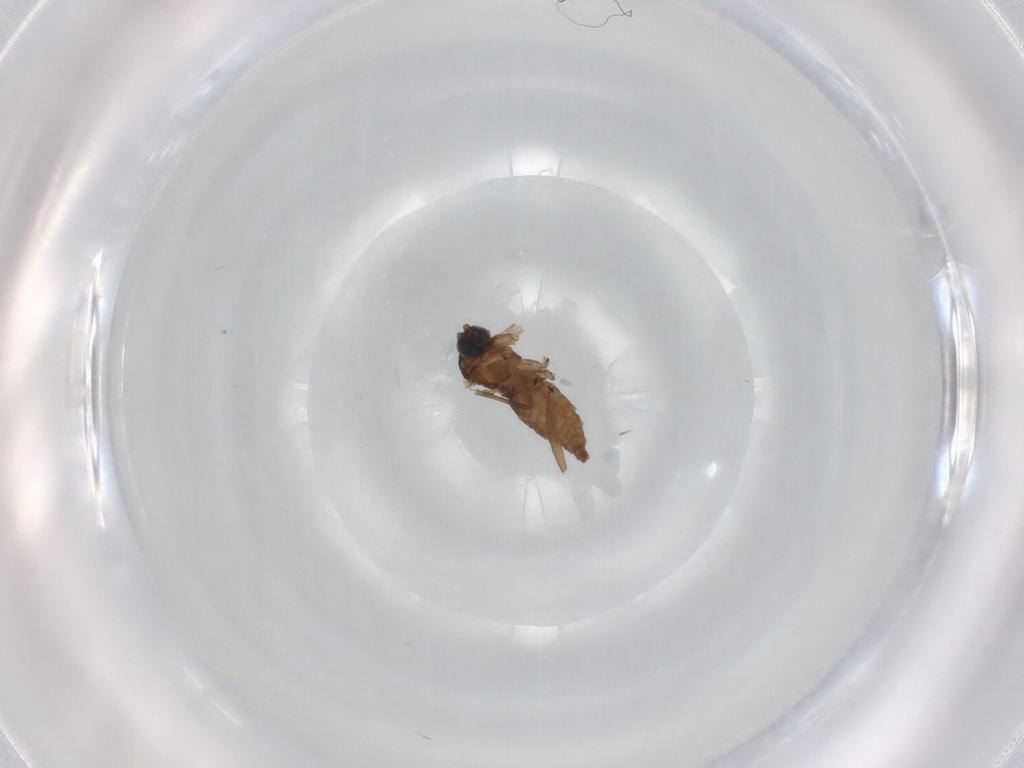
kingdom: Animalia
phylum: Arthropoda
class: Insecta
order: Diptera
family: Sciaridae
